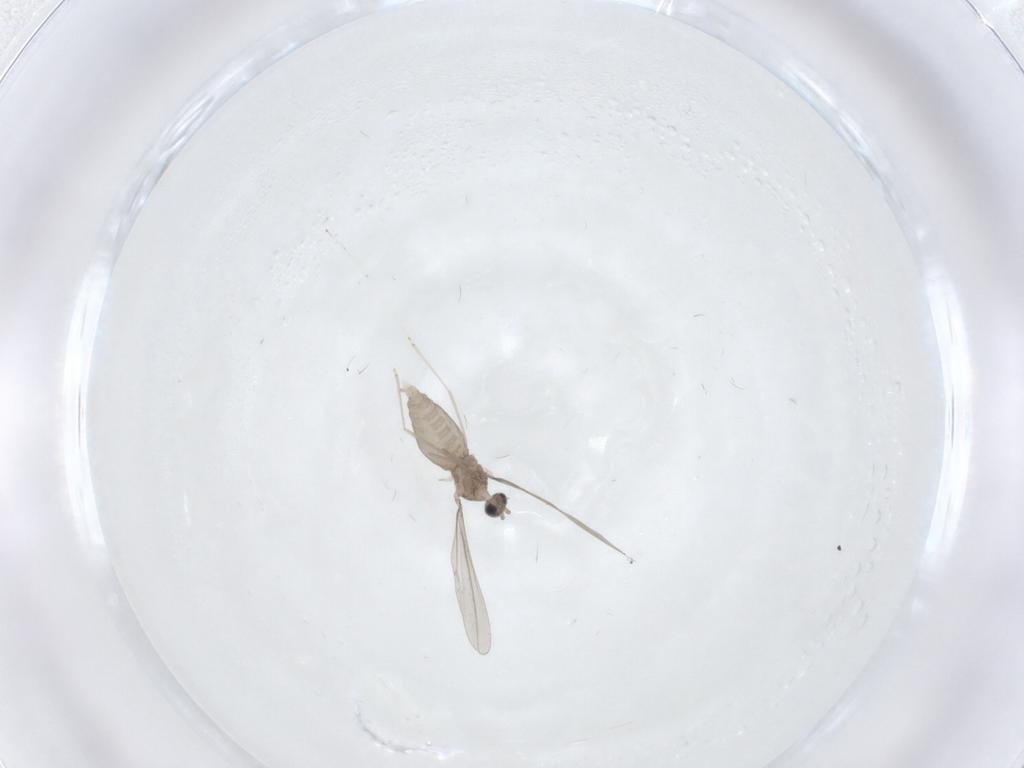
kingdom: Animalia
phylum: Arthropoda
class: Insecta
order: Diptera
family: Cecidomyiidae
